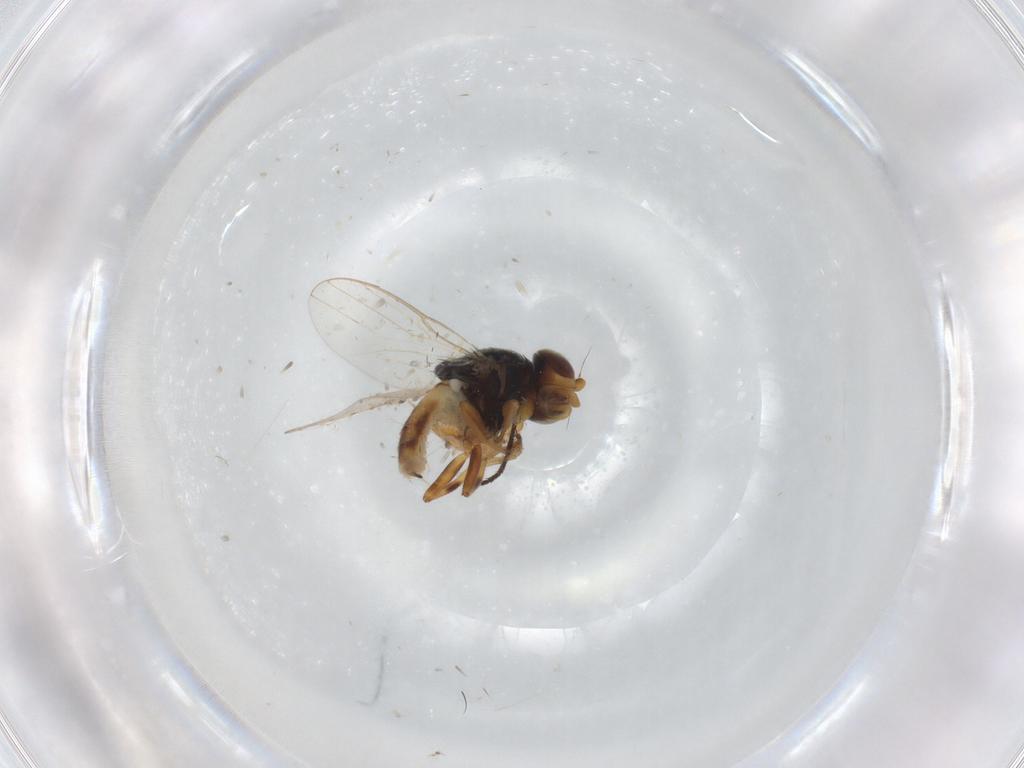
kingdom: Animalia
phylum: Arthropoda
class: Insecta
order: Diptera
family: Chloropidae
